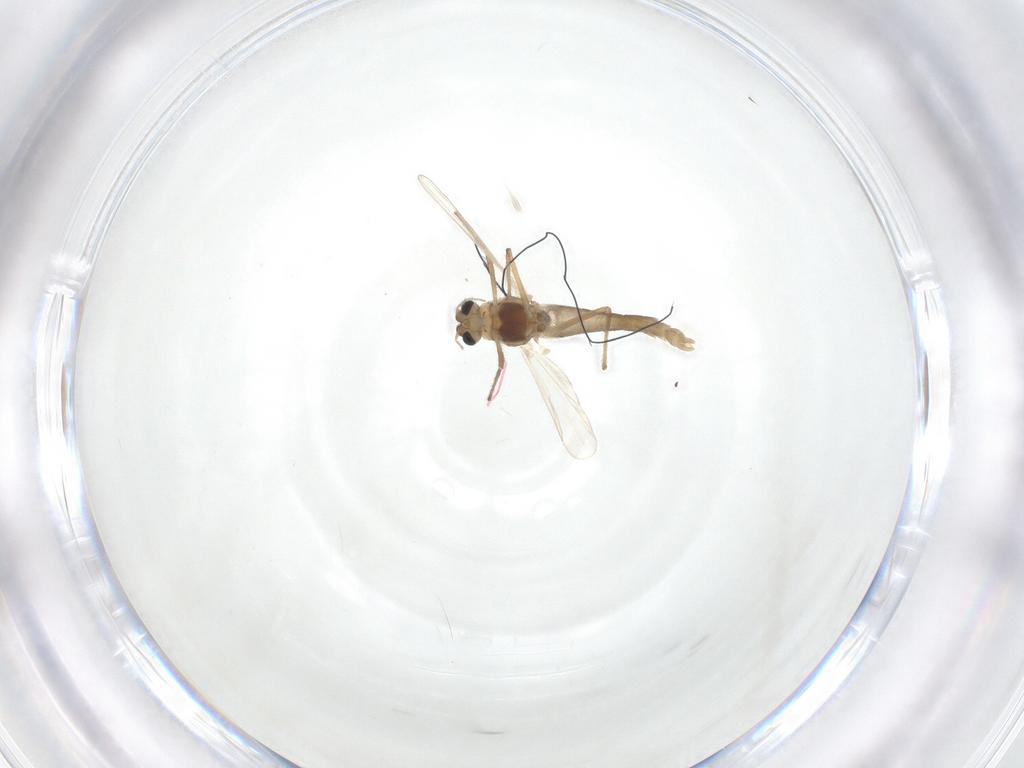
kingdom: Animalia
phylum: Arthropoda
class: Insecta
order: Diptera
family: Chironomidae
